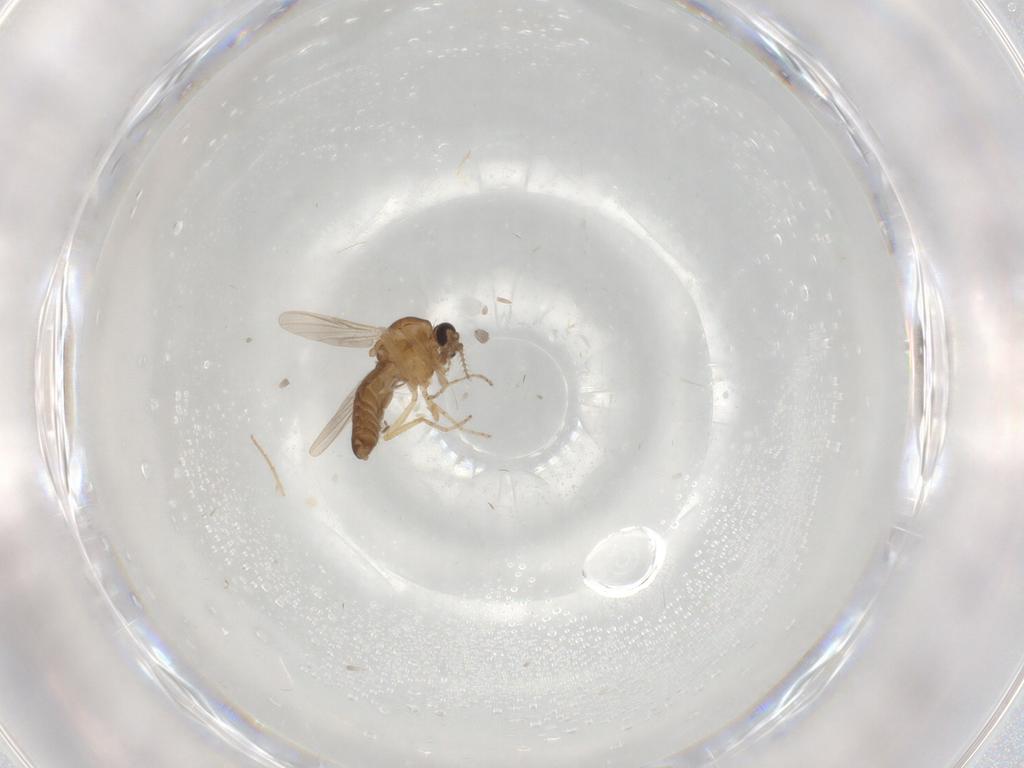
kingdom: Animalia
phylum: Arthropoda
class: Insecta
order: Diptera
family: Ceratopogonidae
